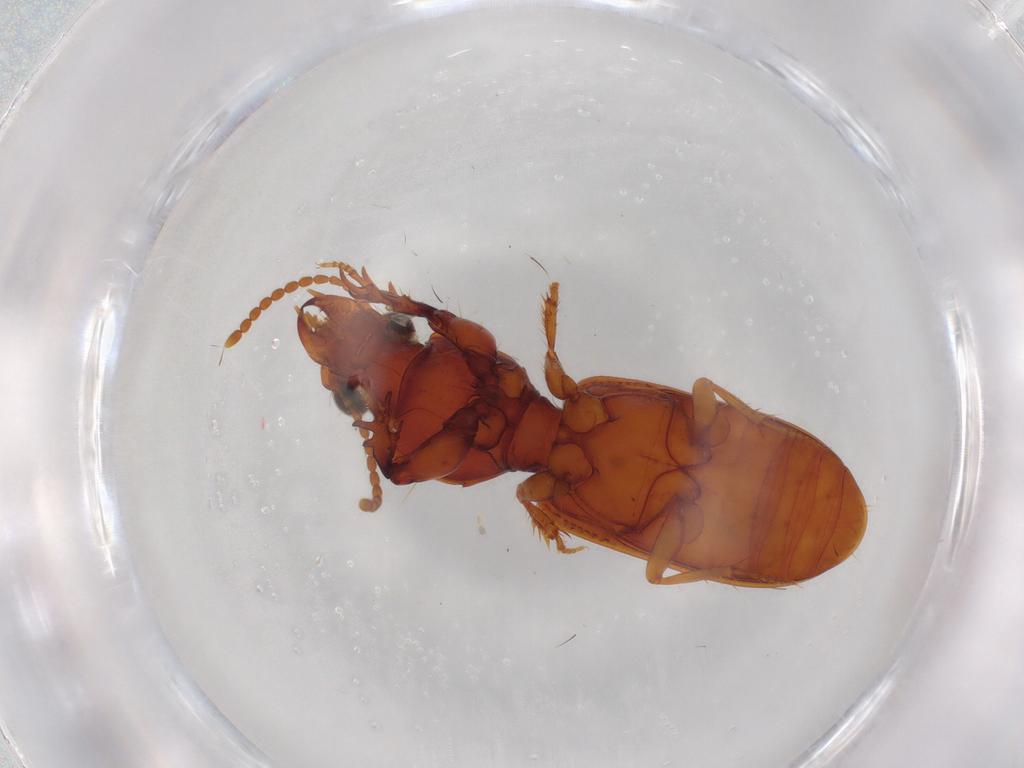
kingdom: Animalia
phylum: Arthropoda
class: Insecta
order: Coleoptera
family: Carabidae
